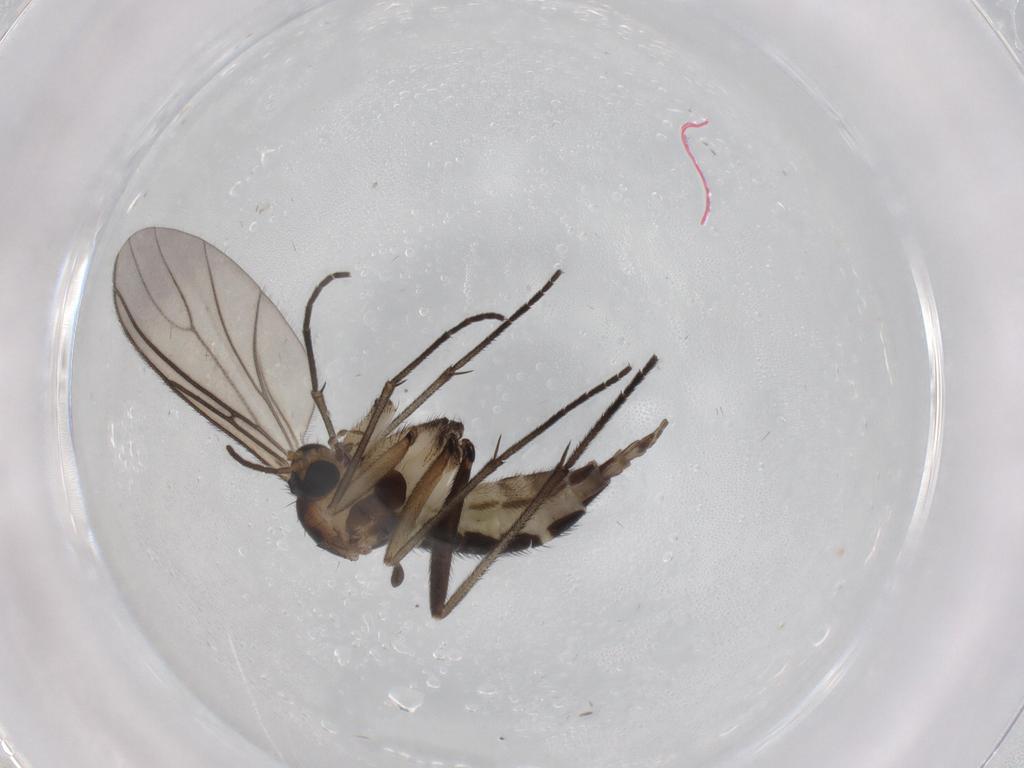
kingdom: Animalia
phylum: Arthropoda
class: Insecta
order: Diptera
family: Sciaridae
